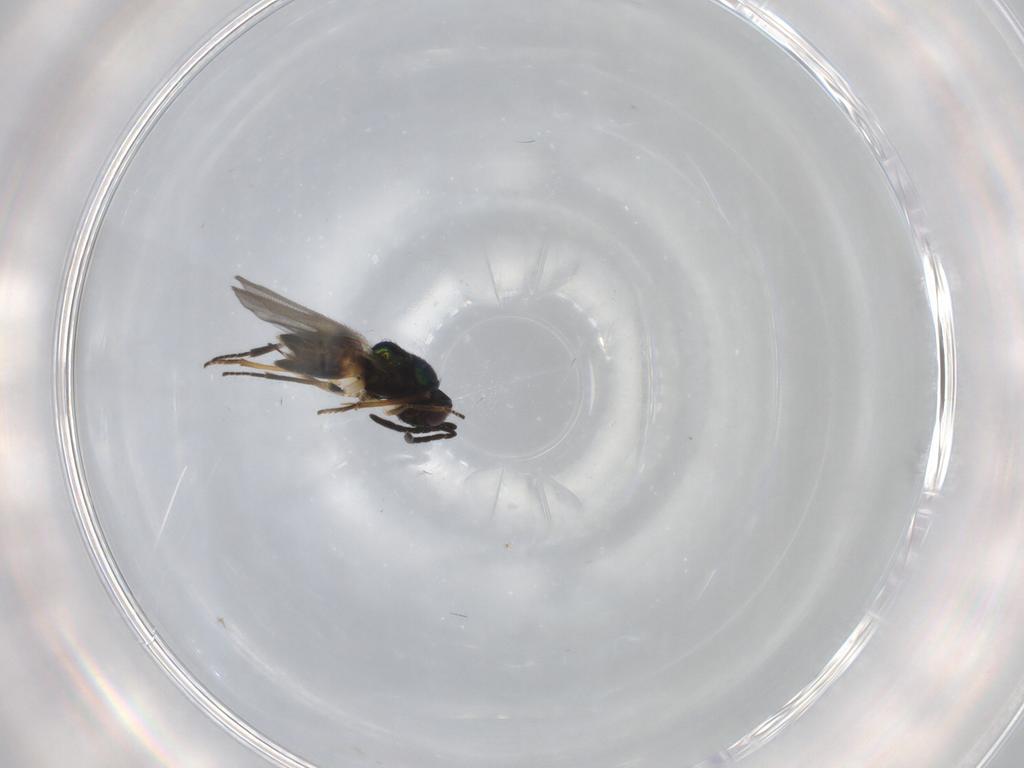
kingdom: Animalia
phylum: Arthropoda
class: Insecta
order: Hymenoptera
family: Encyrtidae
